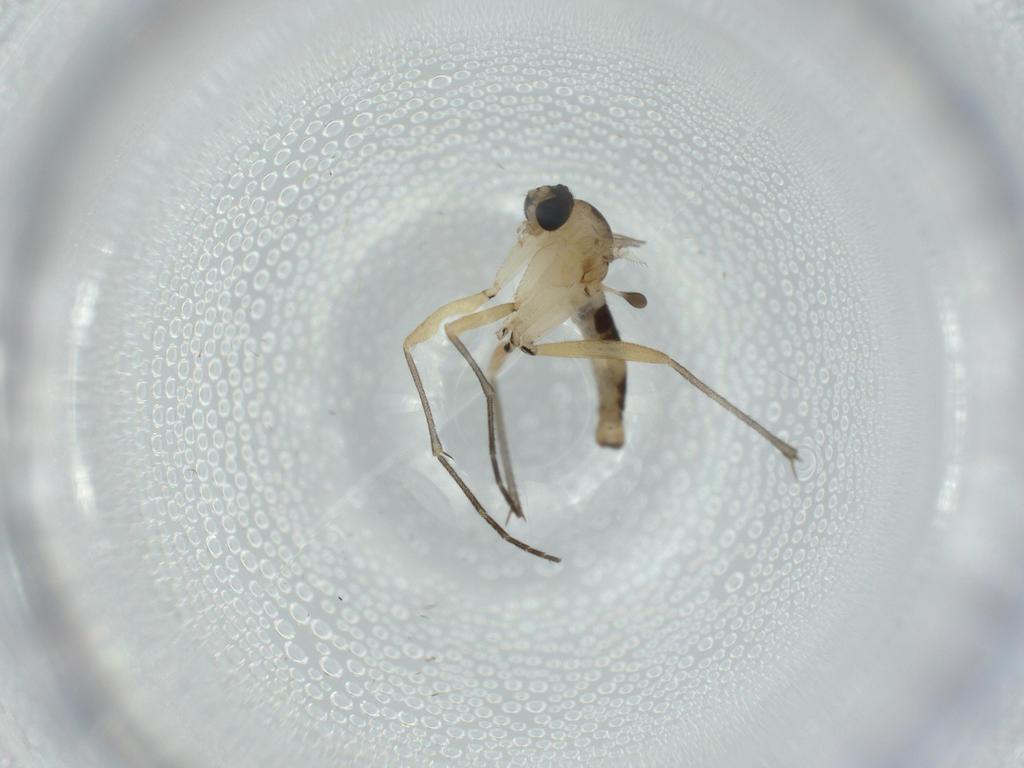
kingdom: Animalia
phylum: Arthropoda
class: Insecta
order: Diptera
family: Sciaridae
